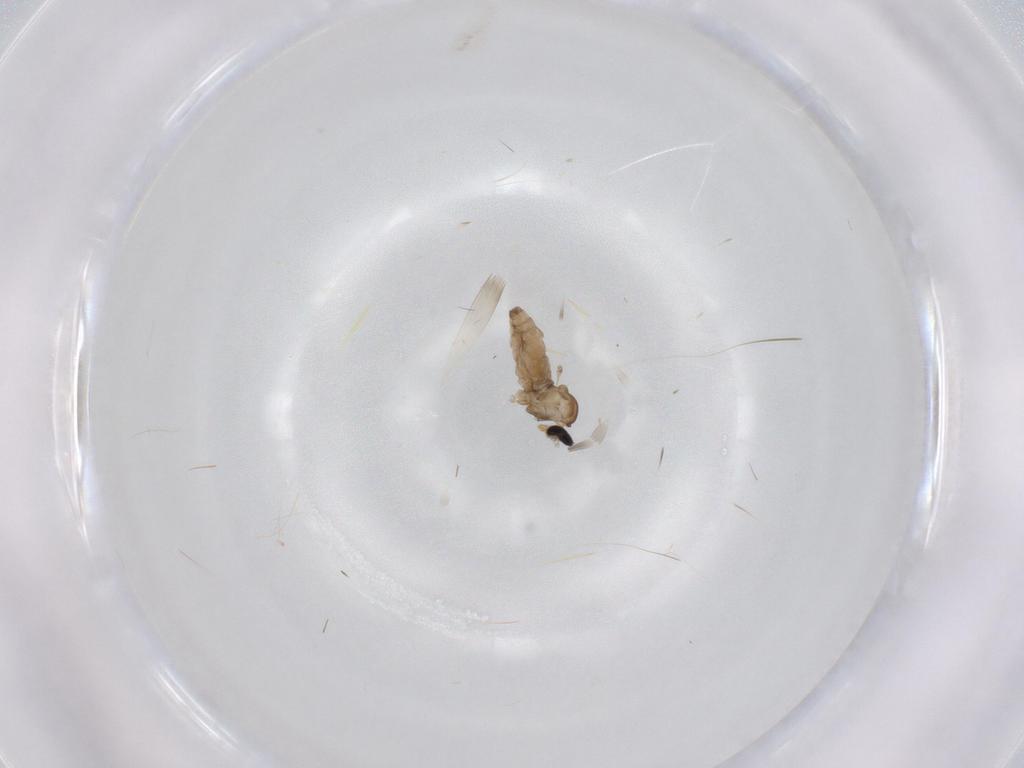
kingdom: Animalia
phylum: Arthropoda
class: Insecta
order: Diptera
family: Cecidomyiidae
